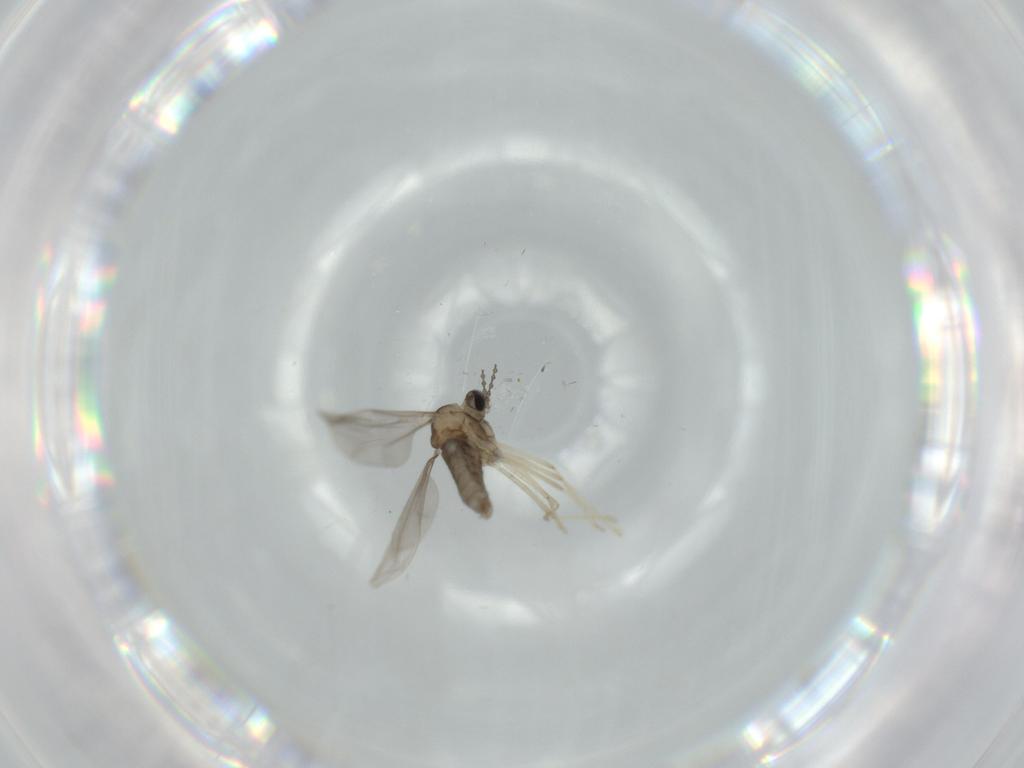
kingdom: Animalia
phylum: Arthropoda
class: Insecta
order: Diptera
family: Cecidomyiidae
